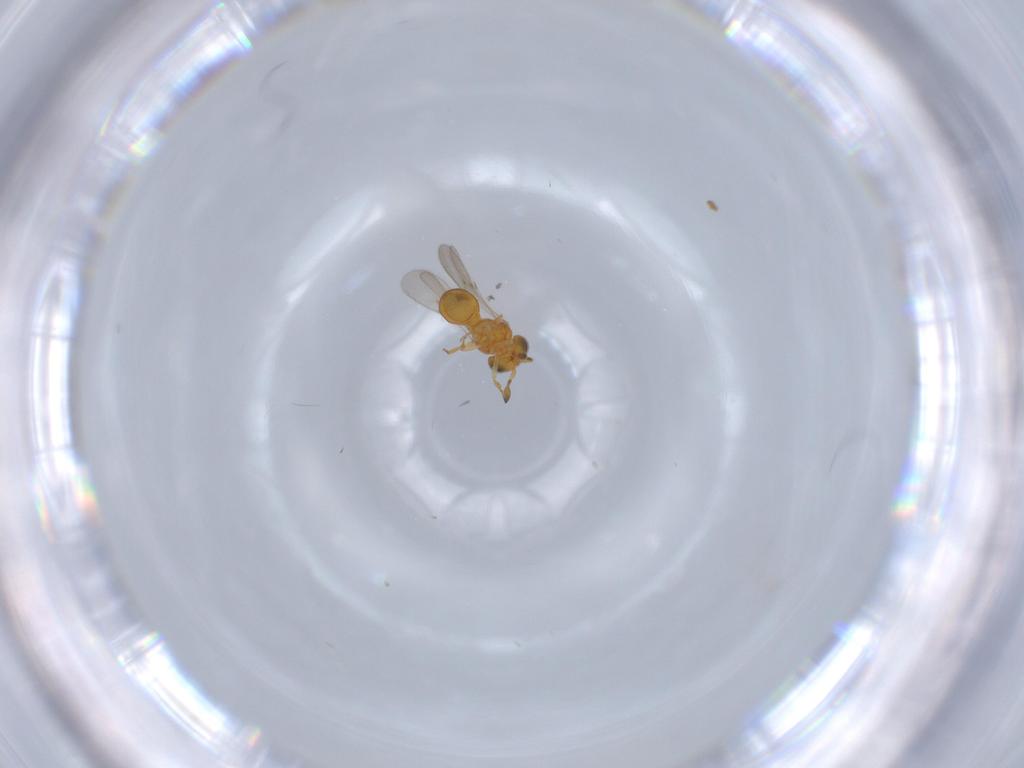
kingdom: Animalia
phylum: Arthropoda
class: Insecta
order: Hymenoptera
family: Scelionidae
